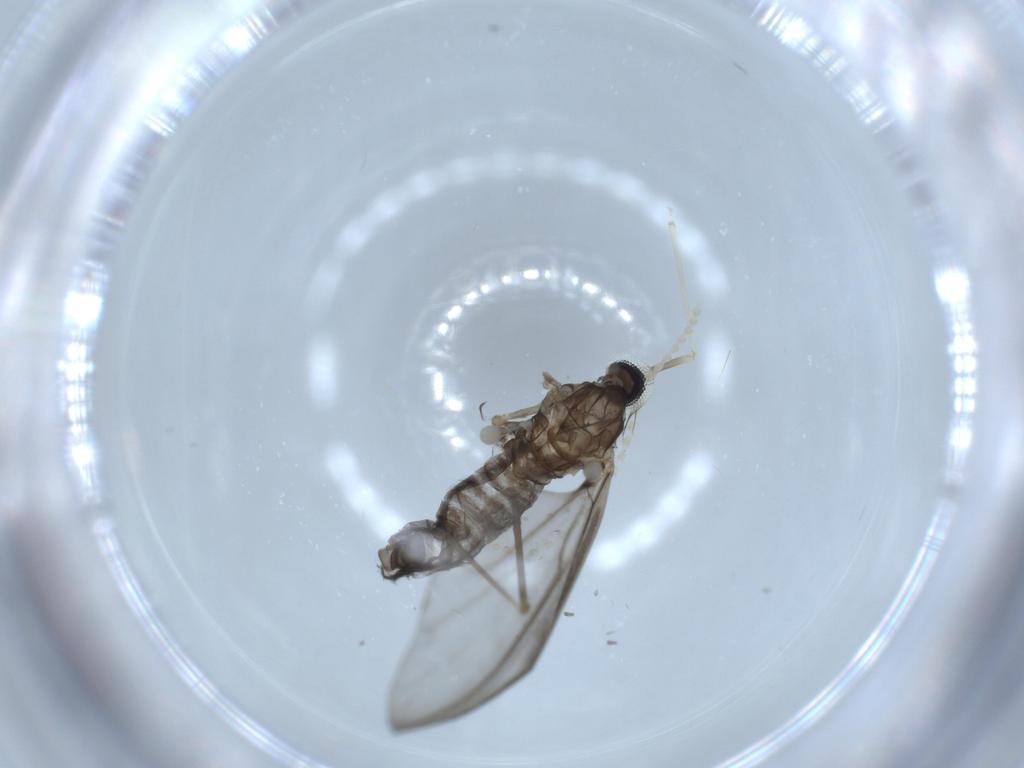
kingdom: Animalia
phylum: Arthropoda
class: Insecta
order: Diptera
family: Cecidomyiidae
